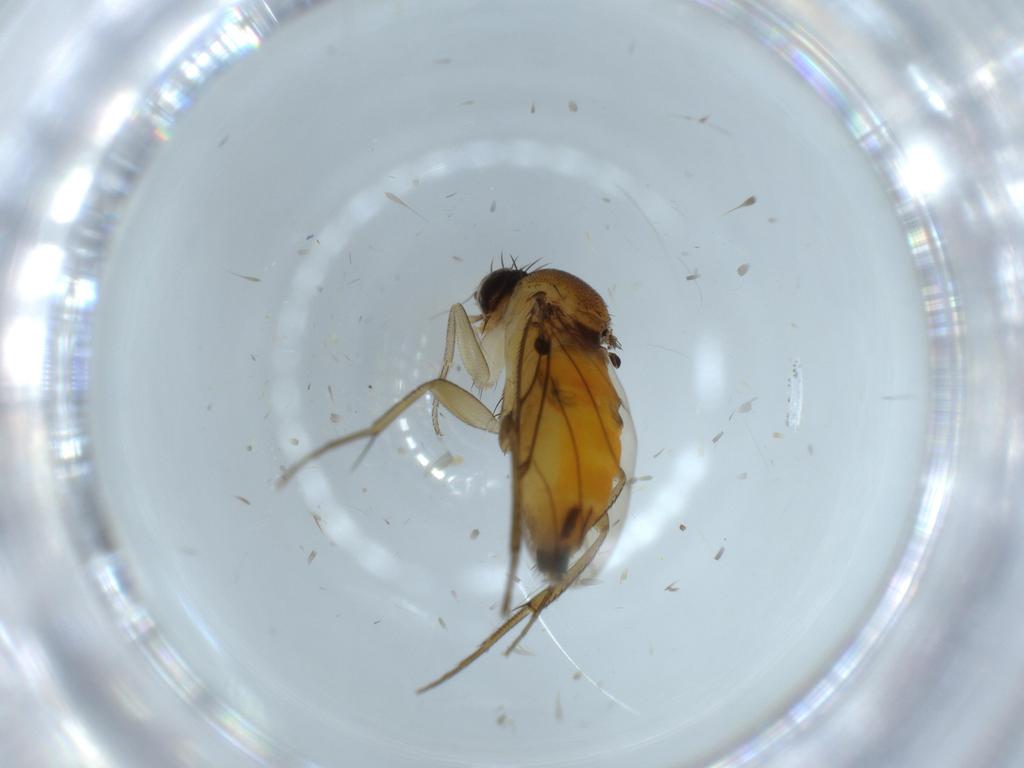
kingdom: Animalia
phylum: Arthropoda
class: Insecta
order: Diptera
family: Phoridae
